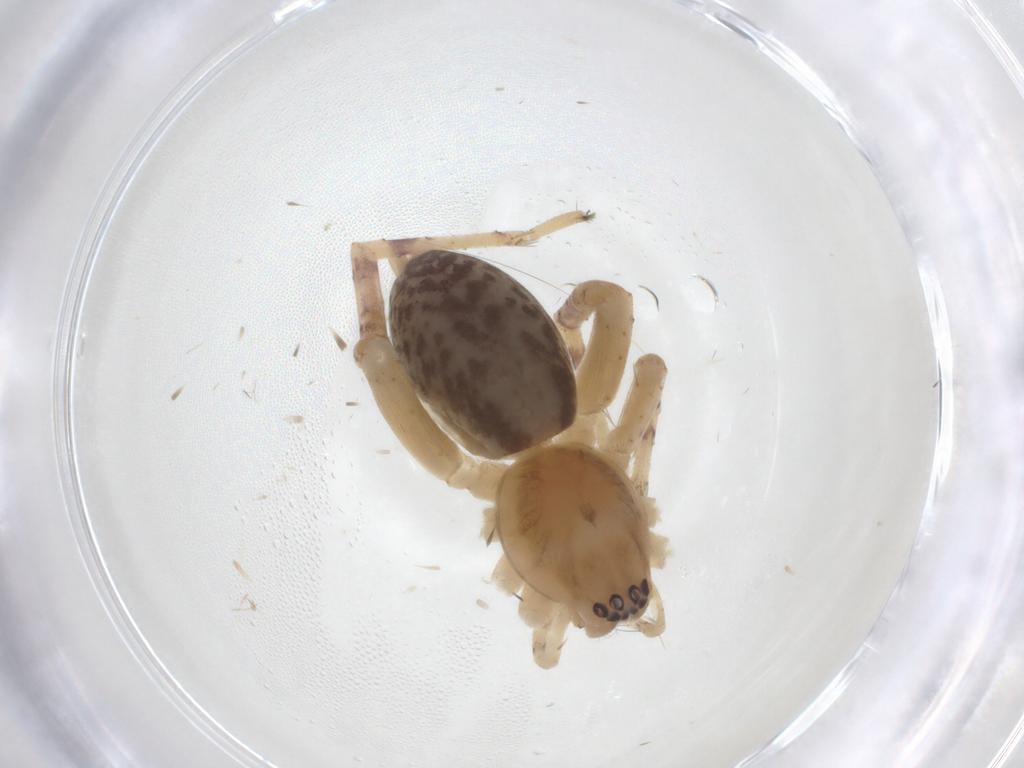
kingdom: Animalia
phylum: Arthropoda
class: Arachnida
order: Araneae
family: Anyphaenidae
